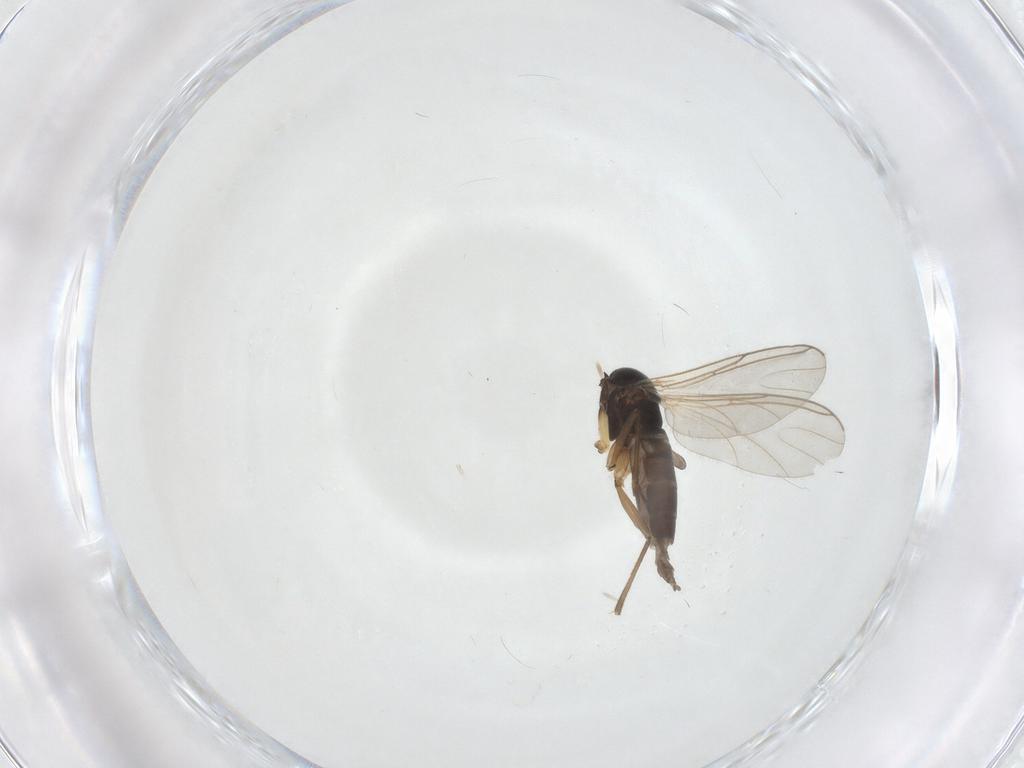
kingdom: Animalia
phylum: Arthropoda
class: Insecta
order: Diptera
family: Sciaridae
